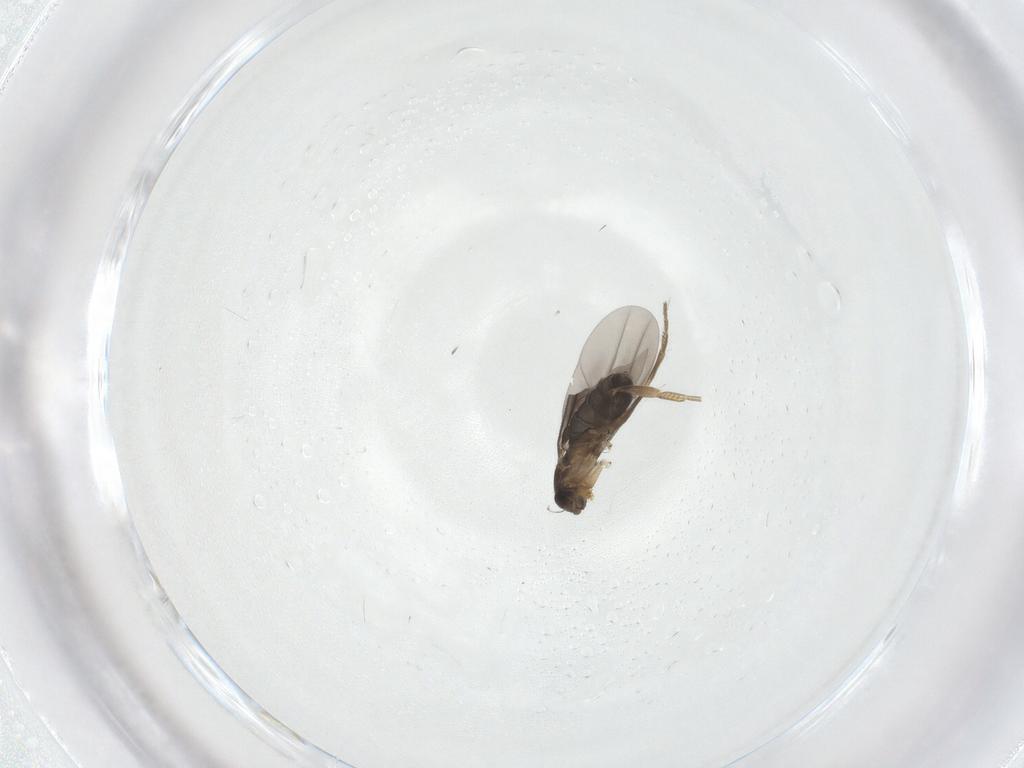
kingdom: Animalia
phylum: Arthropoda
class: Insecta
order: Diptera
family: Phoridae
